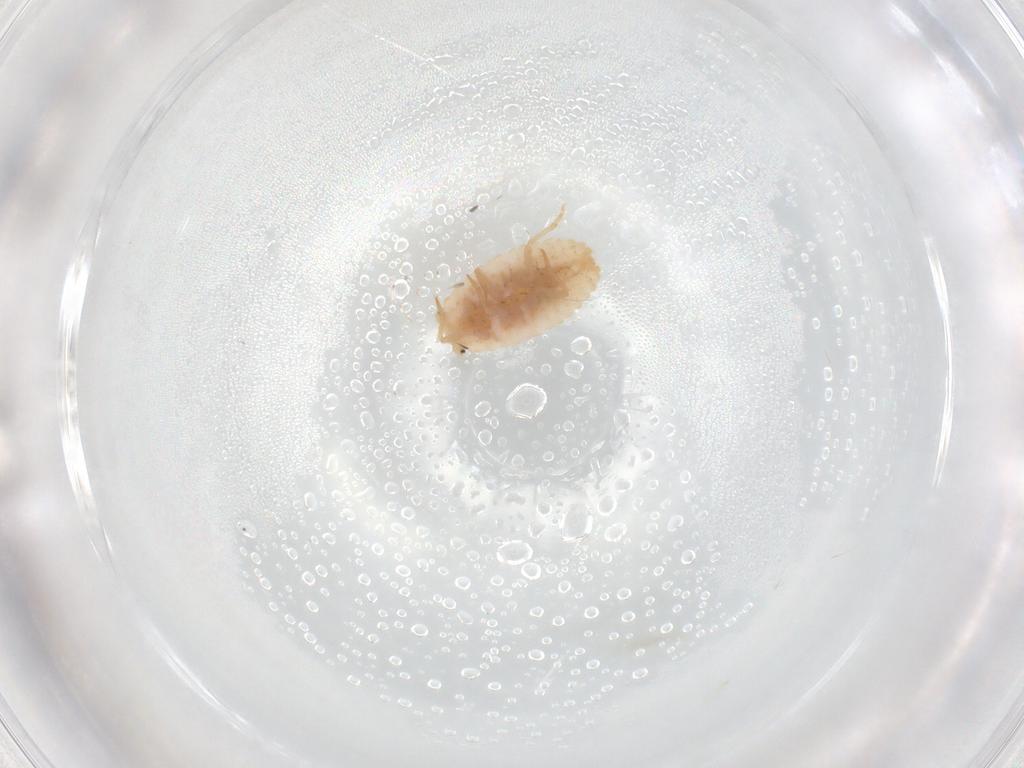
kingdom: Animalia
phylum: Arthropoda
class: Insecta
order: Hemiptera
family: Coccoidea_incertae_sedis
